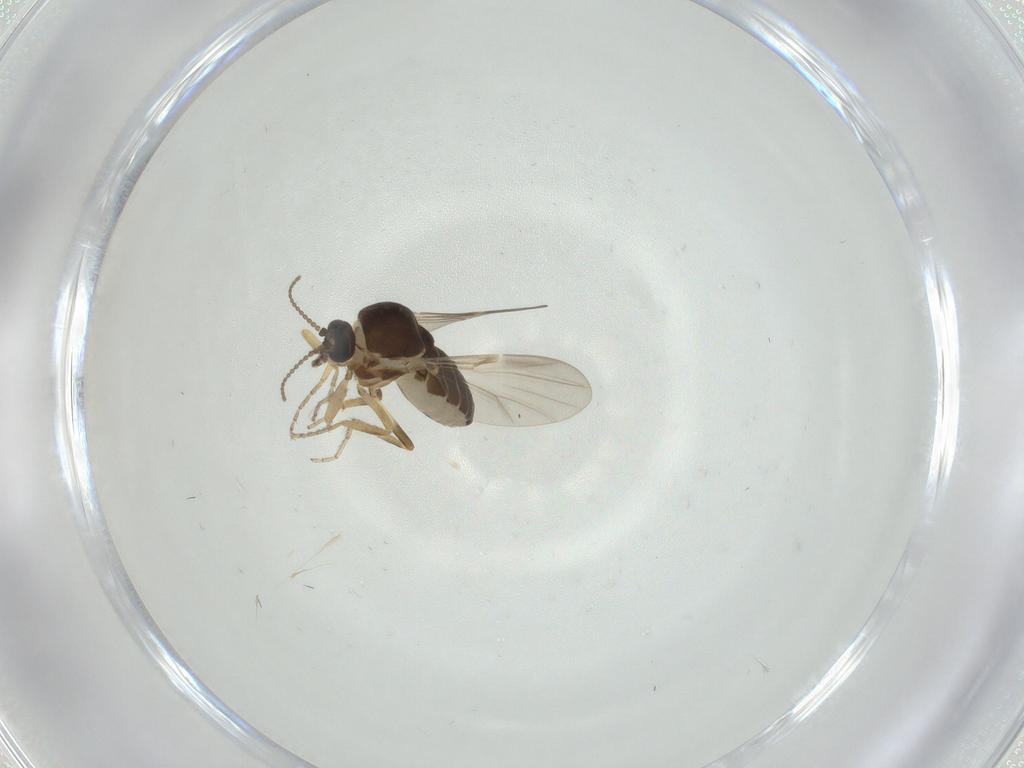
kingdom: Animalia
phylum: Arthropoda
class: Insecta
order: Diptera
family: Ceratopogonidae
